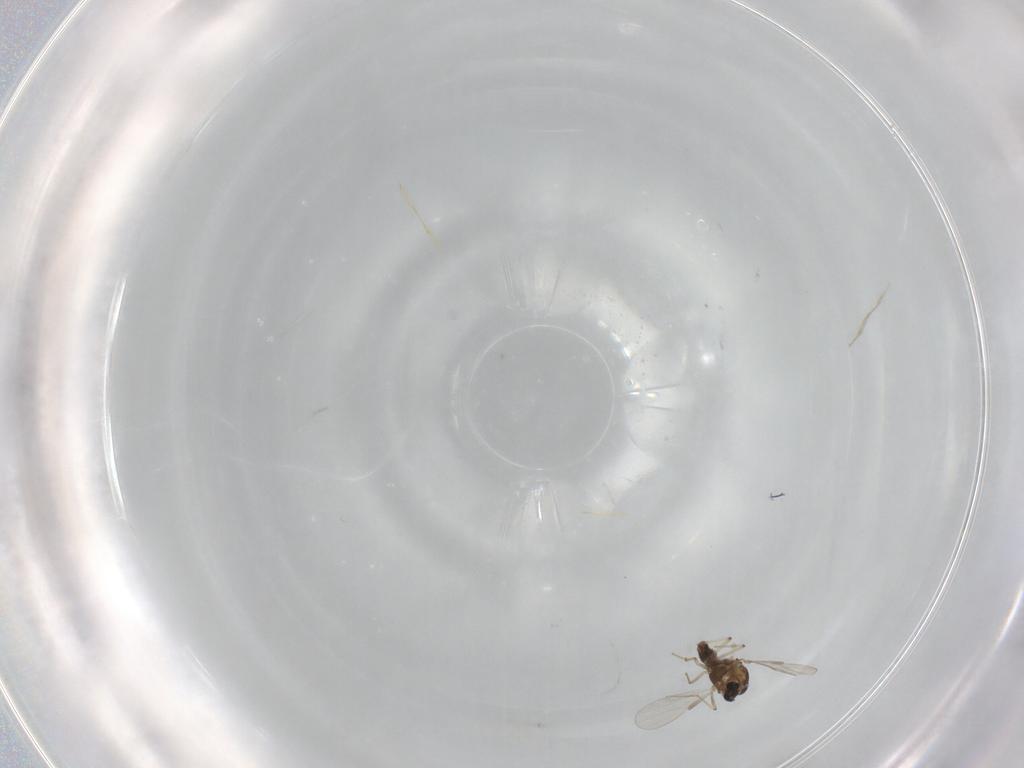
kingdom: Animalia
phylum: Arthropoda
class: Insecta
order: Diptera
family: Chironomidae
